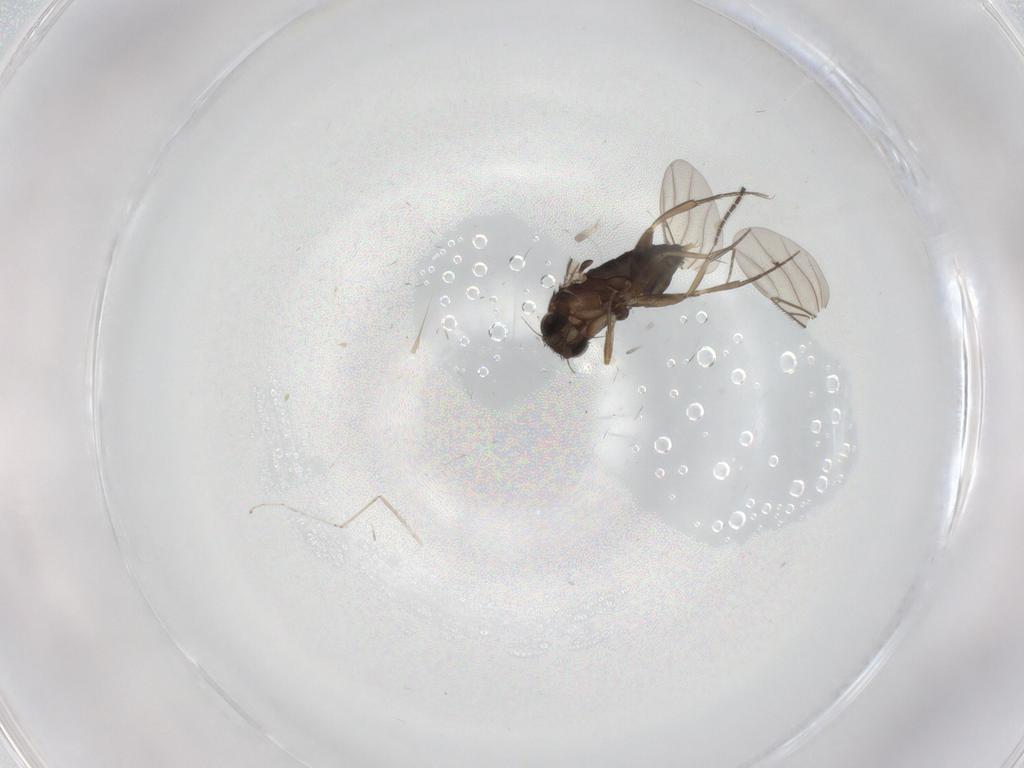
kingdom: Animalia
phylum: Arthropoda
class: Insecta
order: Diptera
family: Sciaridae
